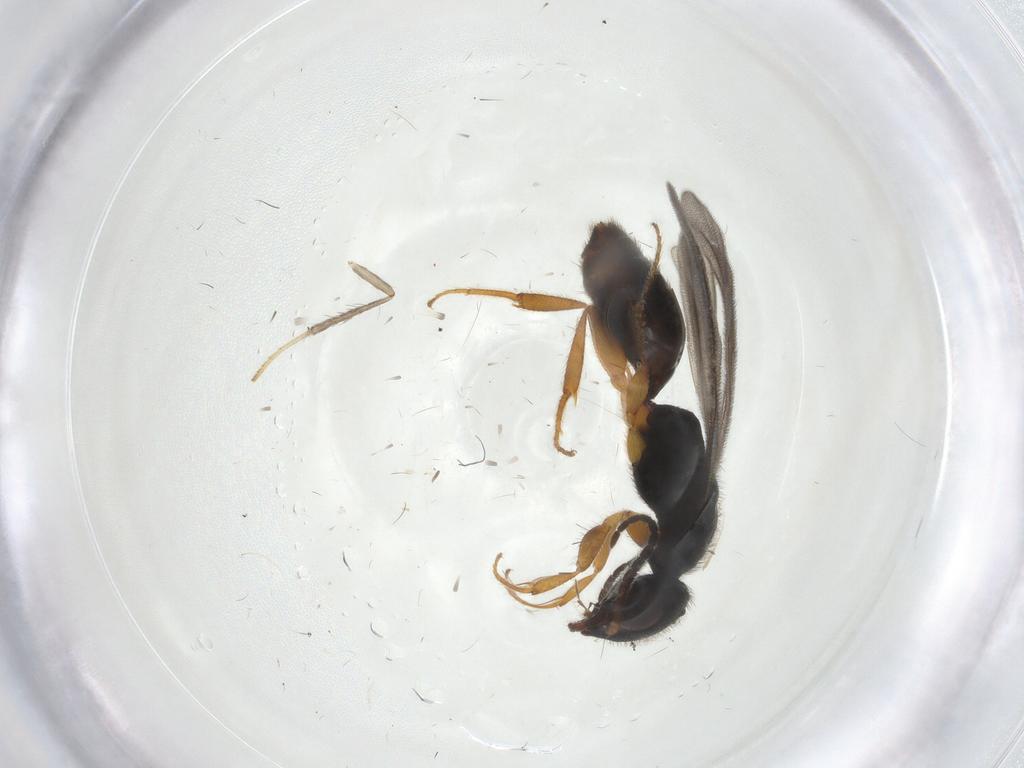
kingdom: Animalia
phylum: Arthropoda
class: Insecta
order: Hymenoptera
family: Bethylidae
